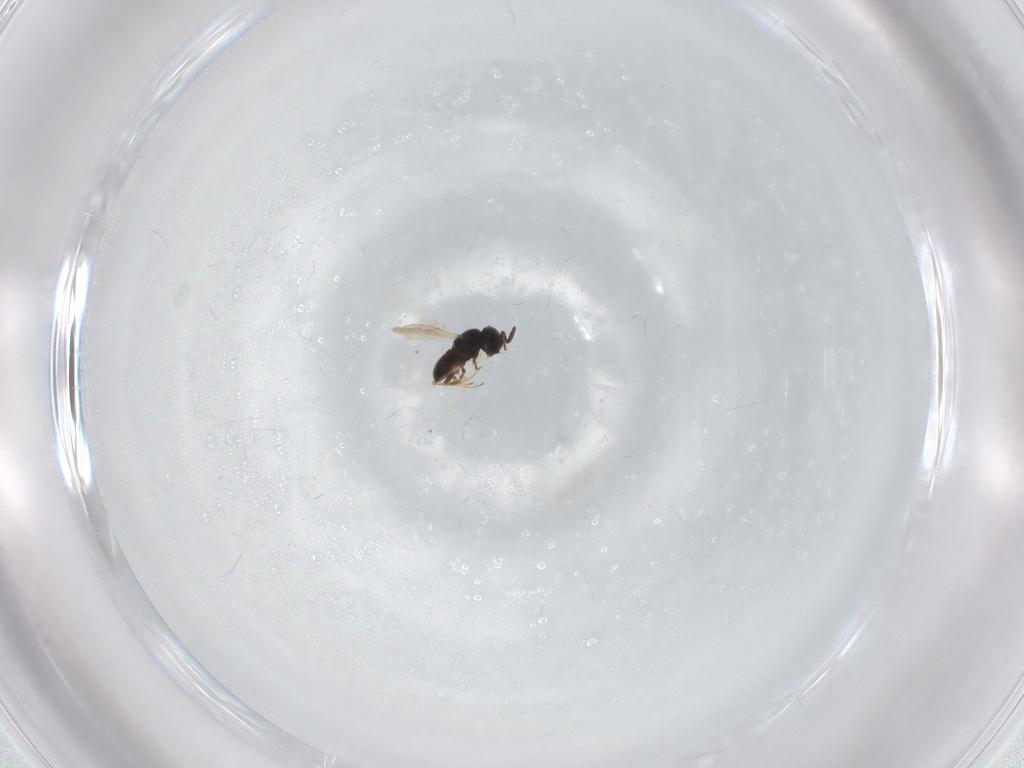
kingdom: Animalia
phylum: Arthropoda
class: Insecta
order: Hymenoptera
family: Scelionidae
